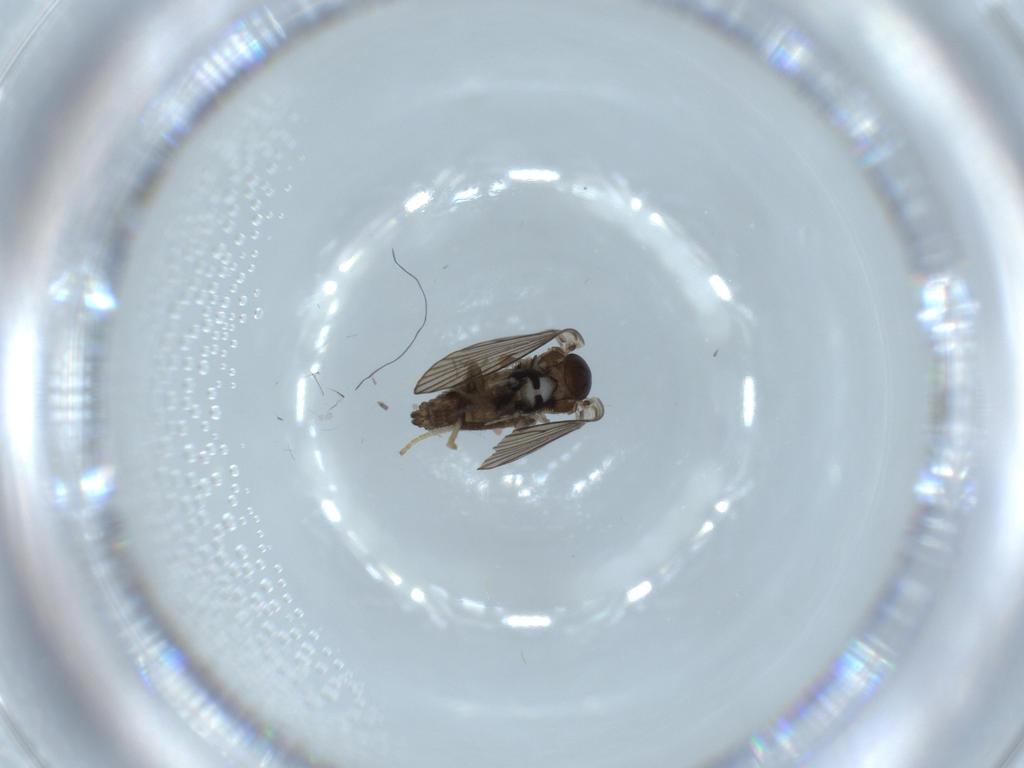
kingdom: Animalia
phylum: Arthropoda
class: Insecta
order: Diptera
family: Psychodidae
